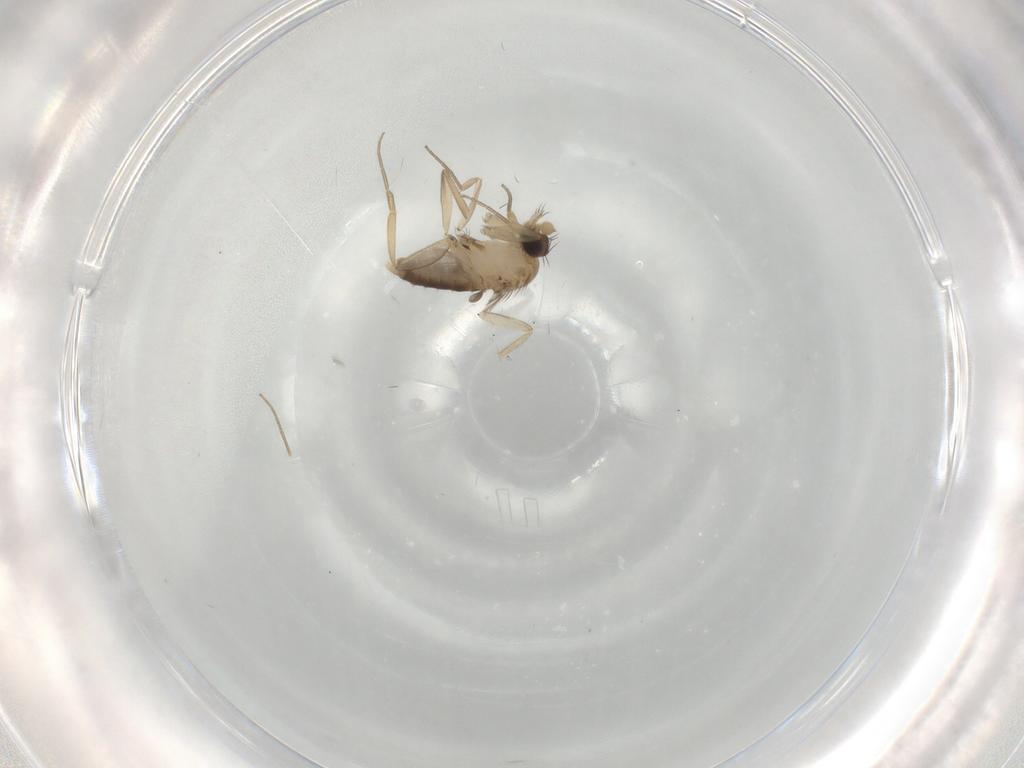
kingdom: Animalia
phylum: Arthropoda
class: Insecta
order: Diptera
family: Phoridae
